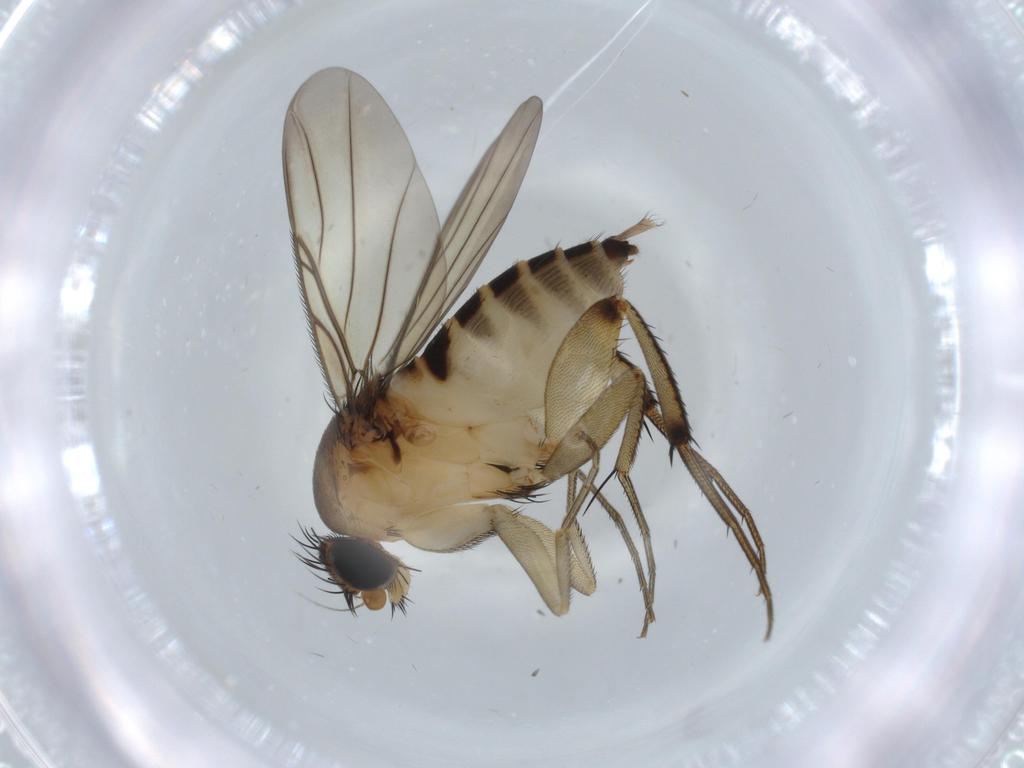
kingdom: Animalia
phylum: Arthropoda
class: Insecta
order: Diptera
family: Phoridae
